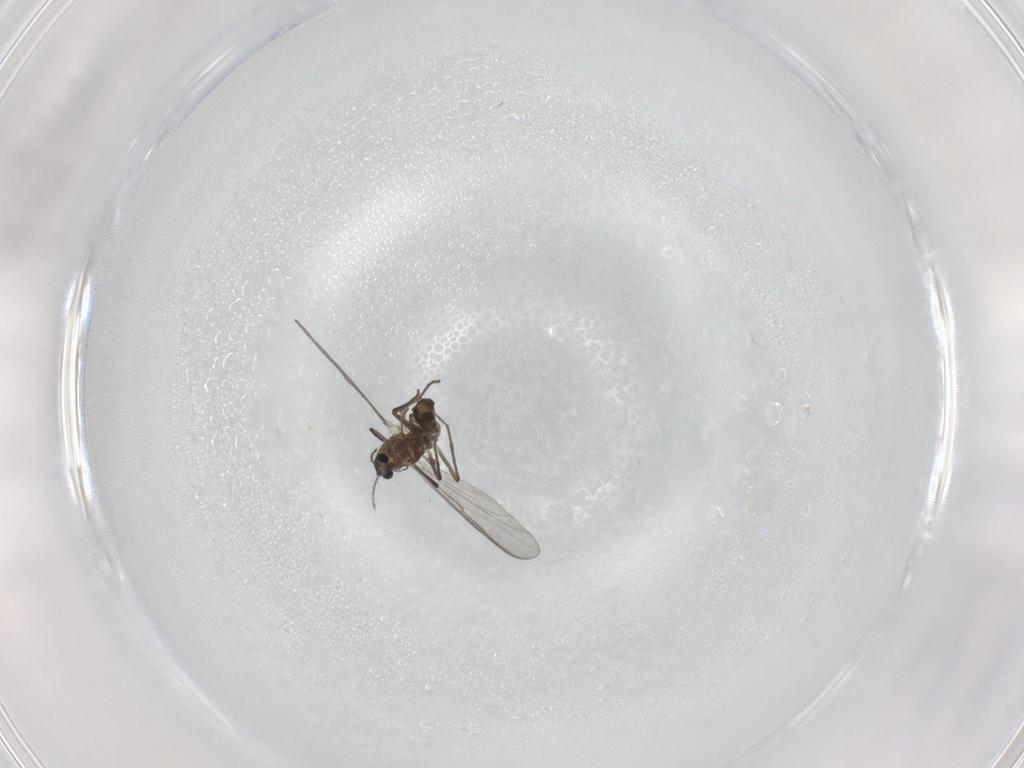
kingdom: Animalia
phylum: Arthropoda
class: Insecta
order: Diptera
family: Chironomidae
